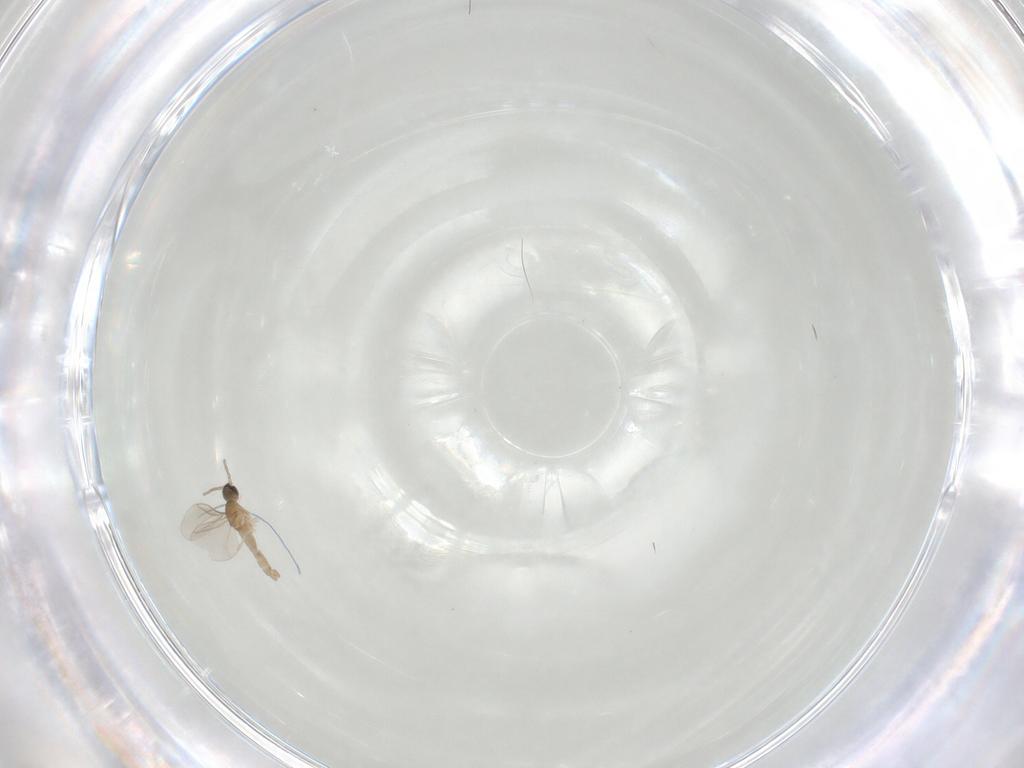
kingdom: Animalia
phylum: Arthropoda
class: Insecta
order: Diptera
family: Cecidomyiidae
